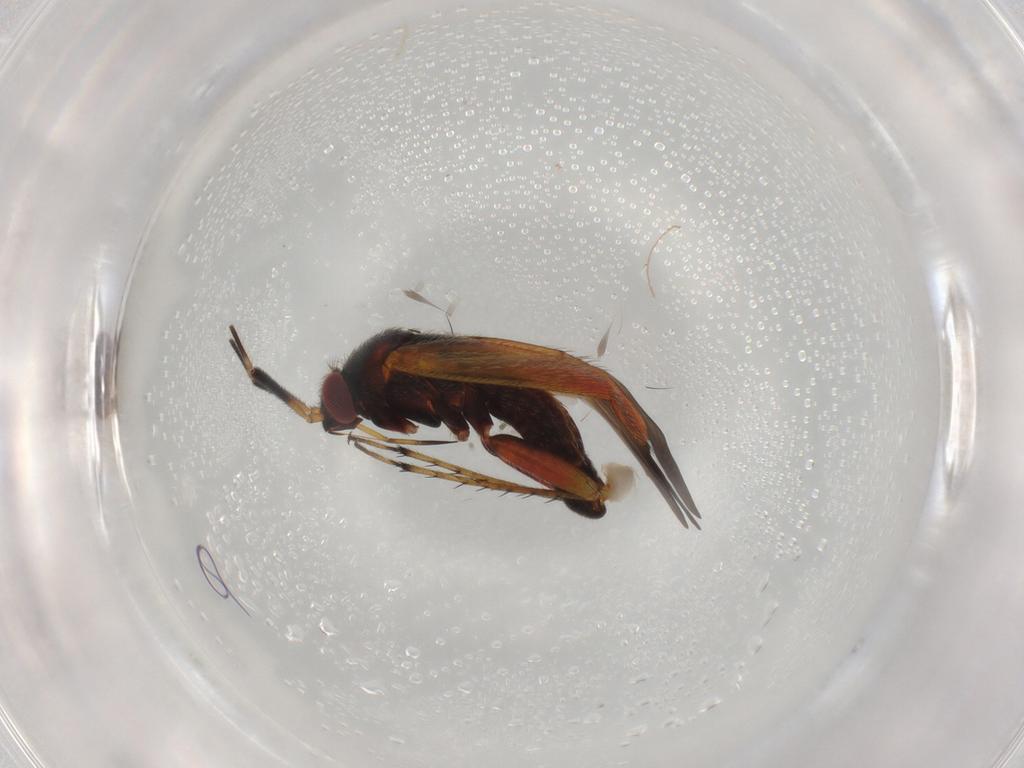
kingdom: Animalia
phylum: Arthropoda
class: Insecta
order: Hemiptera
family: Miridae
